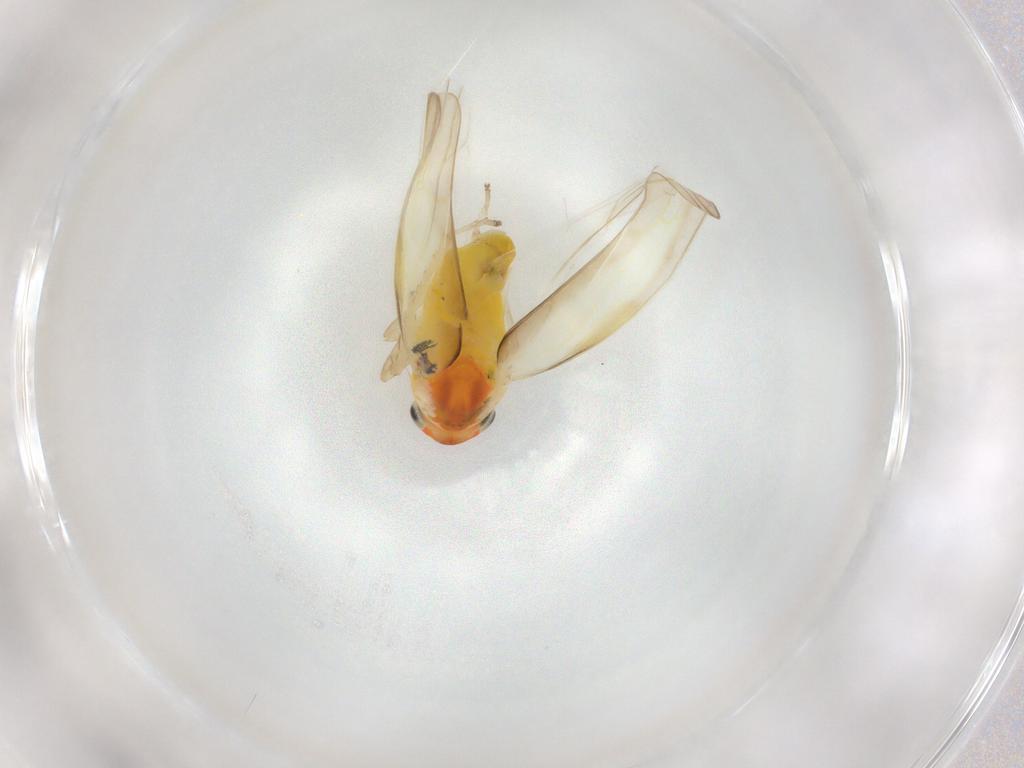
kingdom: Animalia
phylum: Arthropoda
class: Insecta
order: Hemiptera
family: Cicadellidae
